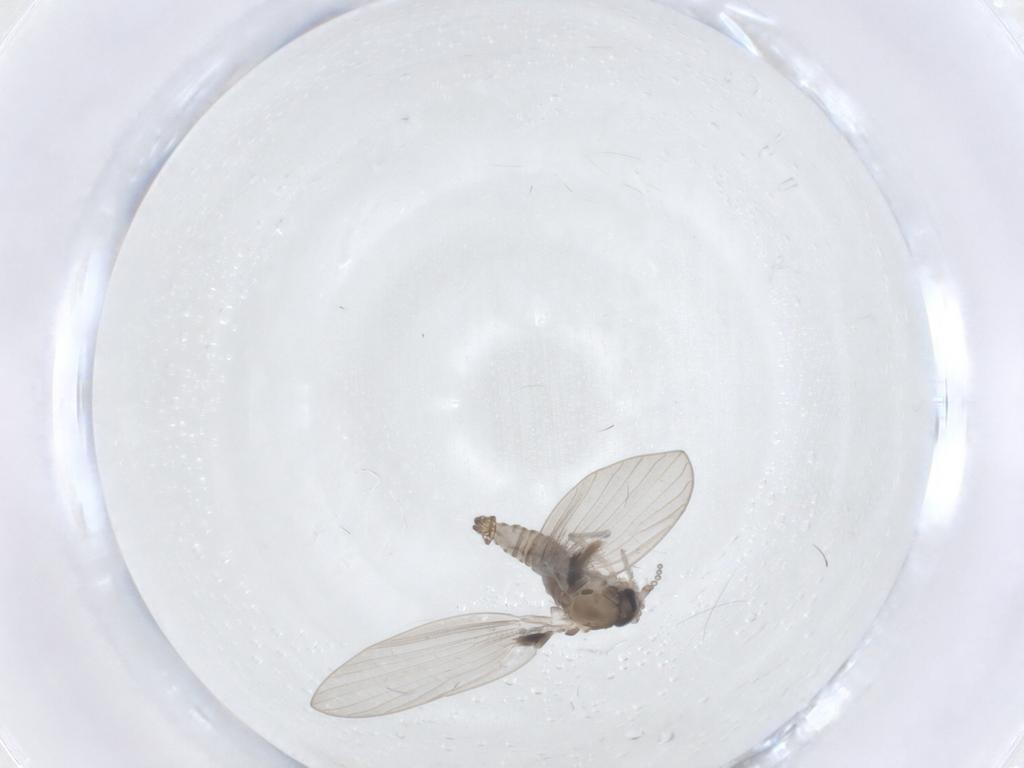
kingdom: Animalia
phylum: Arthropoda
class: Insecta
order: Diptera
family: Psychodidae
